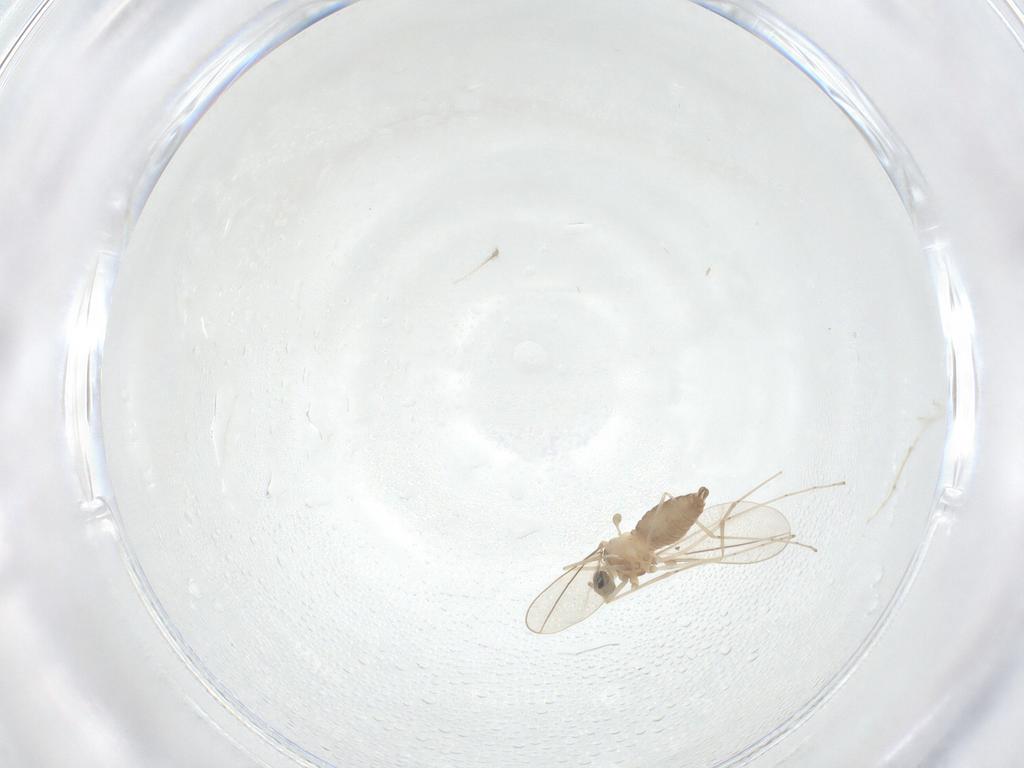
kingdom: Animalia
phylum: Arthropoda
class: Insecta
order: Diptera
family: Cecidomyiidae
